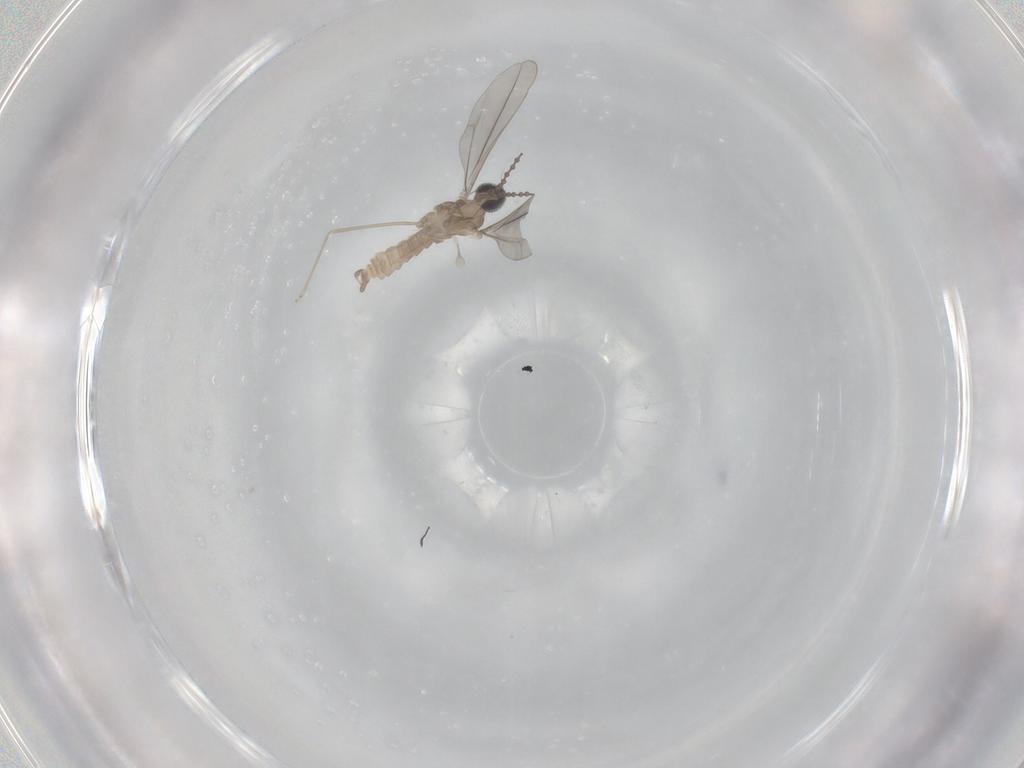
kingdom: Animalia
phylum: Arthropoda
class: Insecta
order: Diptera
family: Cecidomyiidae
